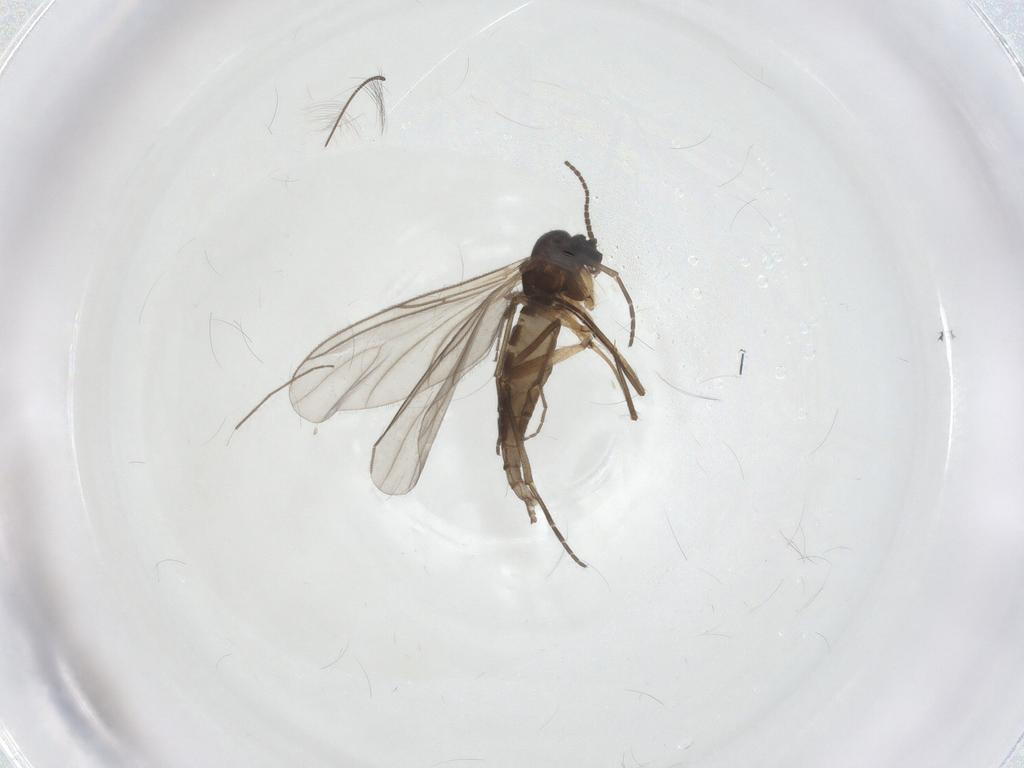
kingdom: Animalia
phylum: Arthropoda
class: Insecta
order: Diptera
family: Sciaridae
